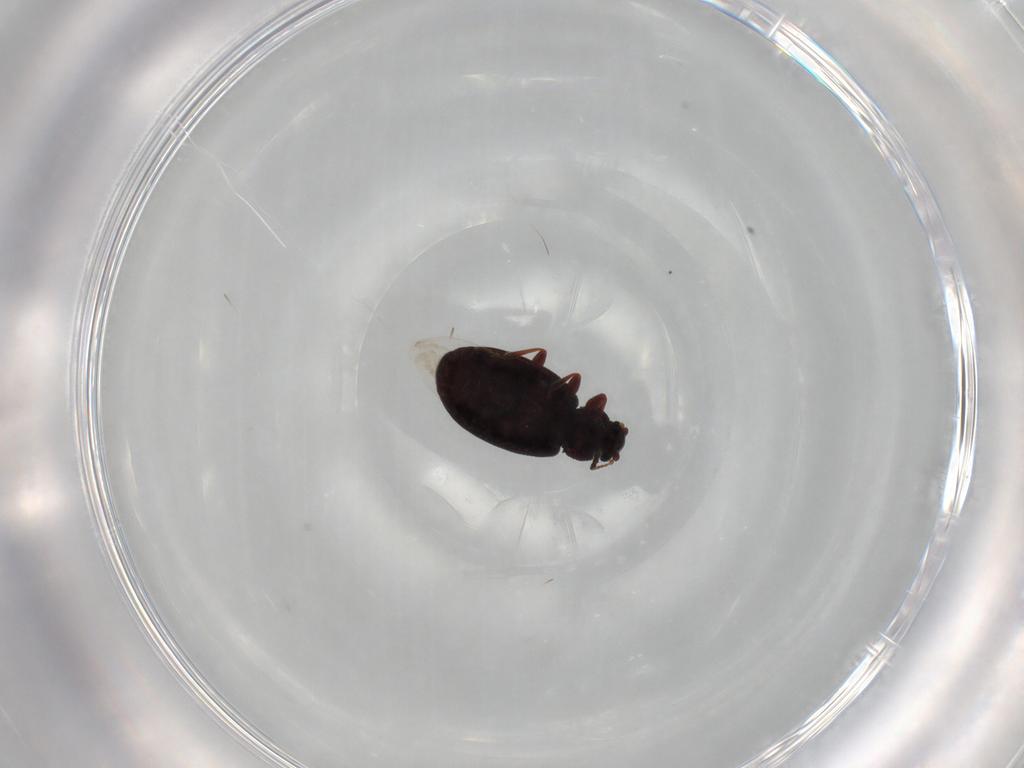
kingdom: Animalia
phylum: Arthropoda
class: Insecta
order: Coleoptera
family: Latridiidae
